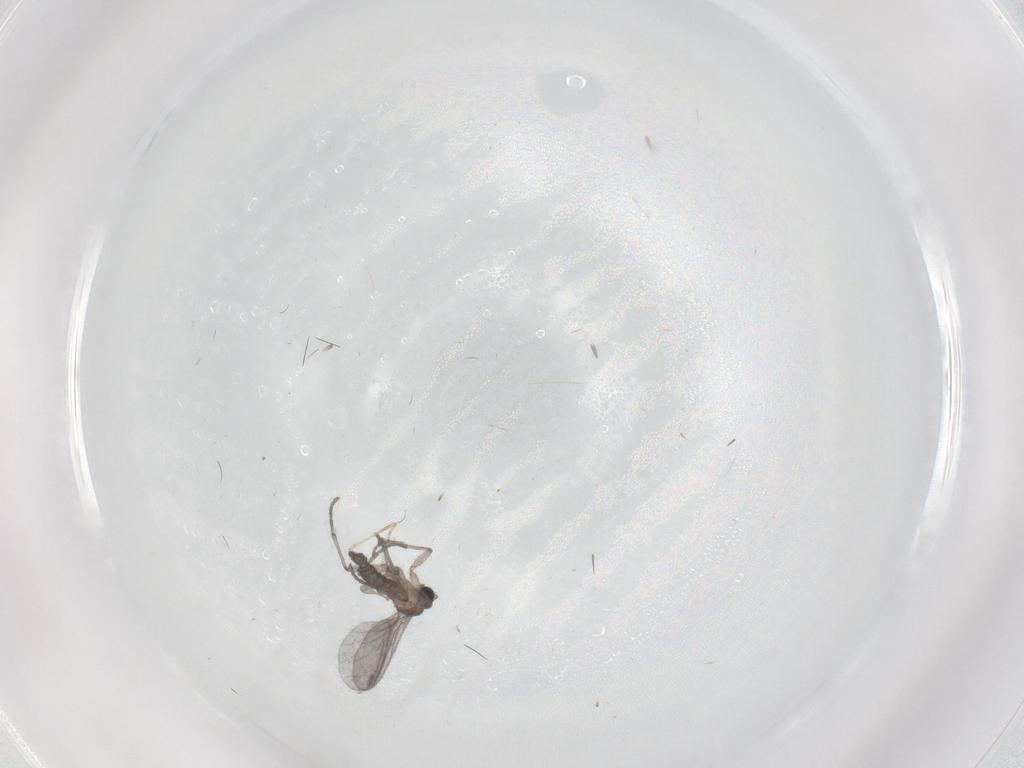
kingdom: Animalia
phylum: Arthropoda
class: Insecta
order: Diptera
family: Sciaridae
